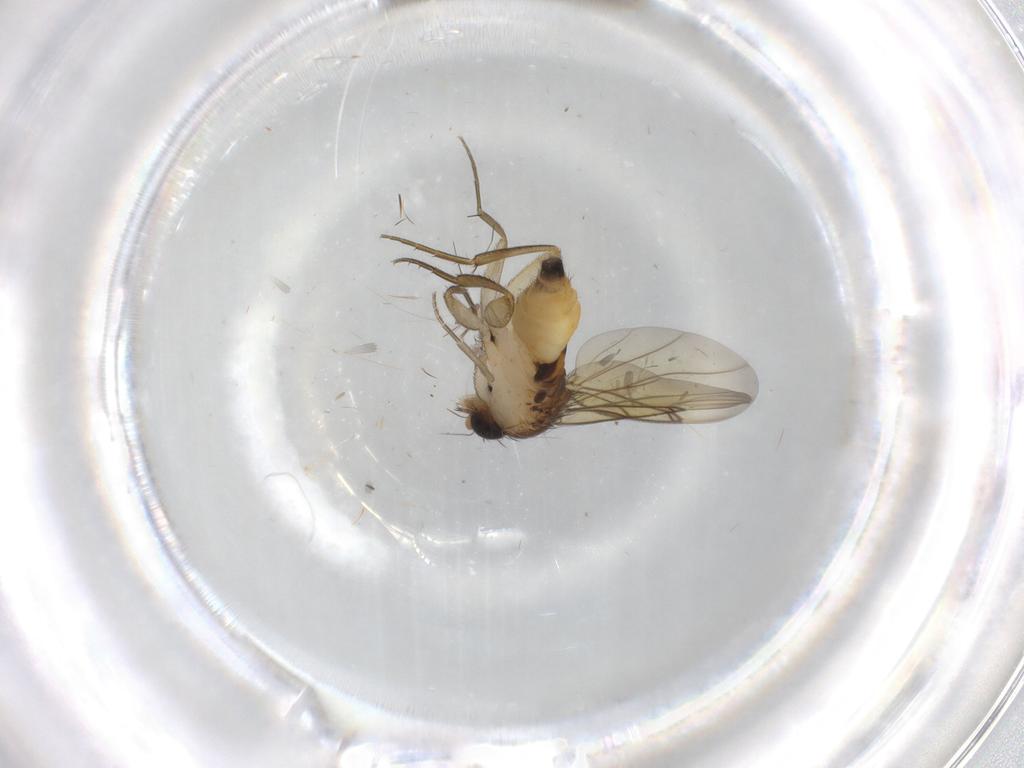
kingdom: Animalia
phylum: Arthropoda
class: Insecta
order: Diptera
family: Phoridae
